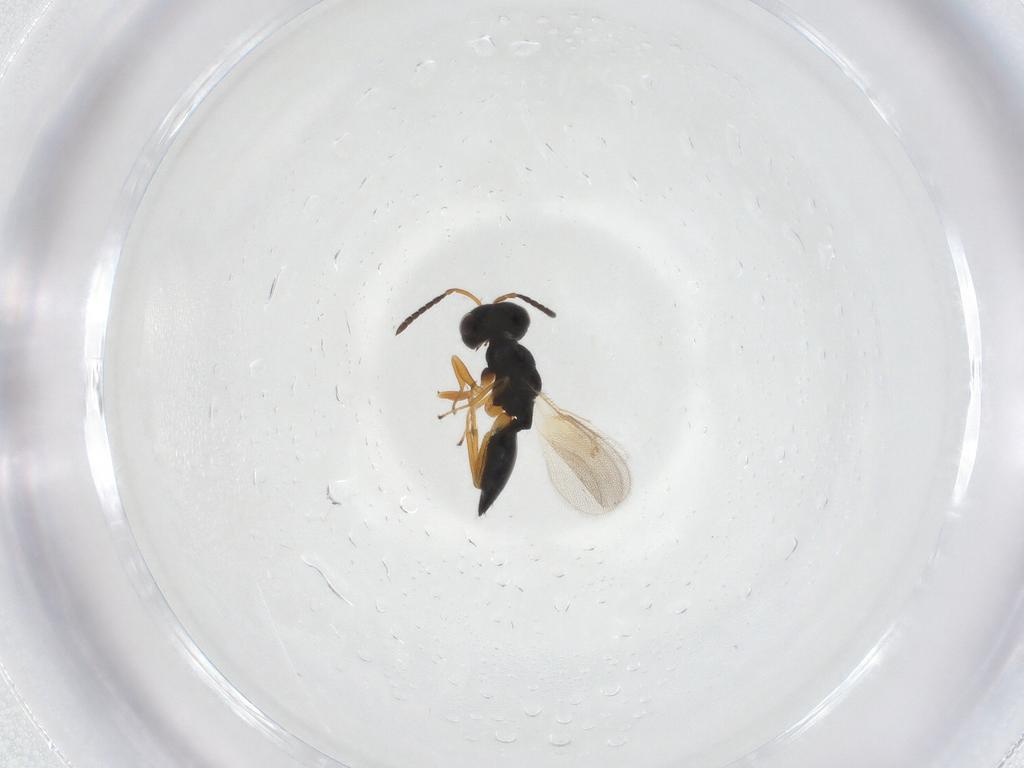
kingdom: Animalia
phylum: Arthropoda
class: Insecta
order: Hymenoptera
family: Pteromalidae
